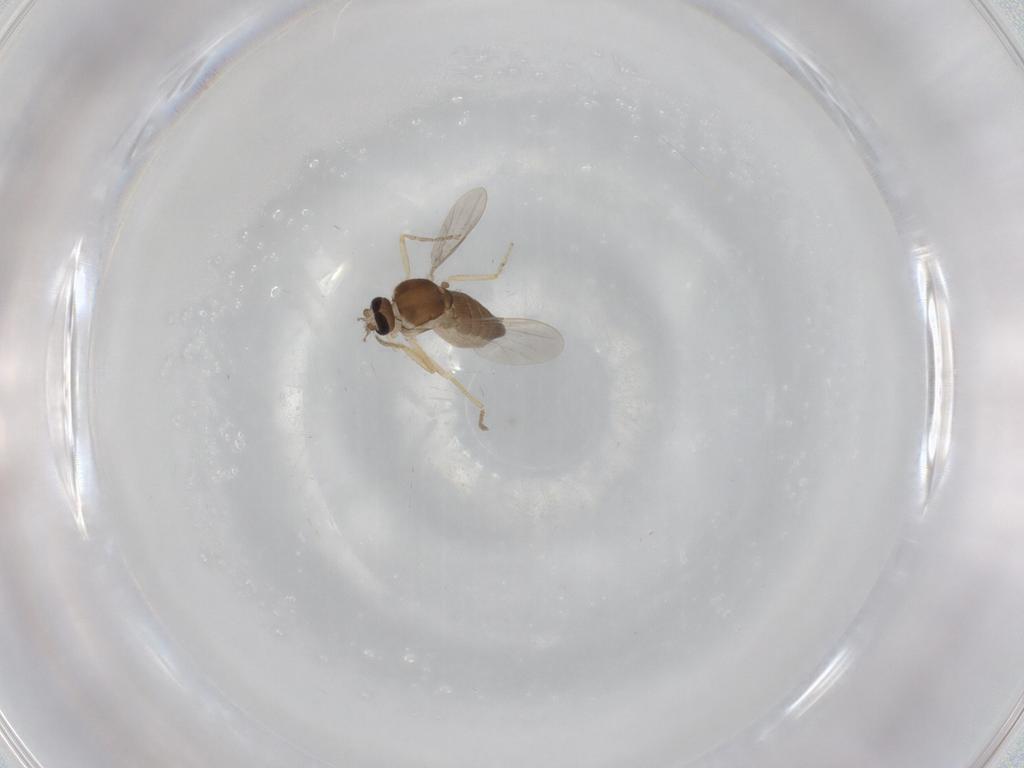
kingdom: Animalia
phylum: Arthropoda
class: Insecta
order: Diptera
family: Ceratopogonidae
